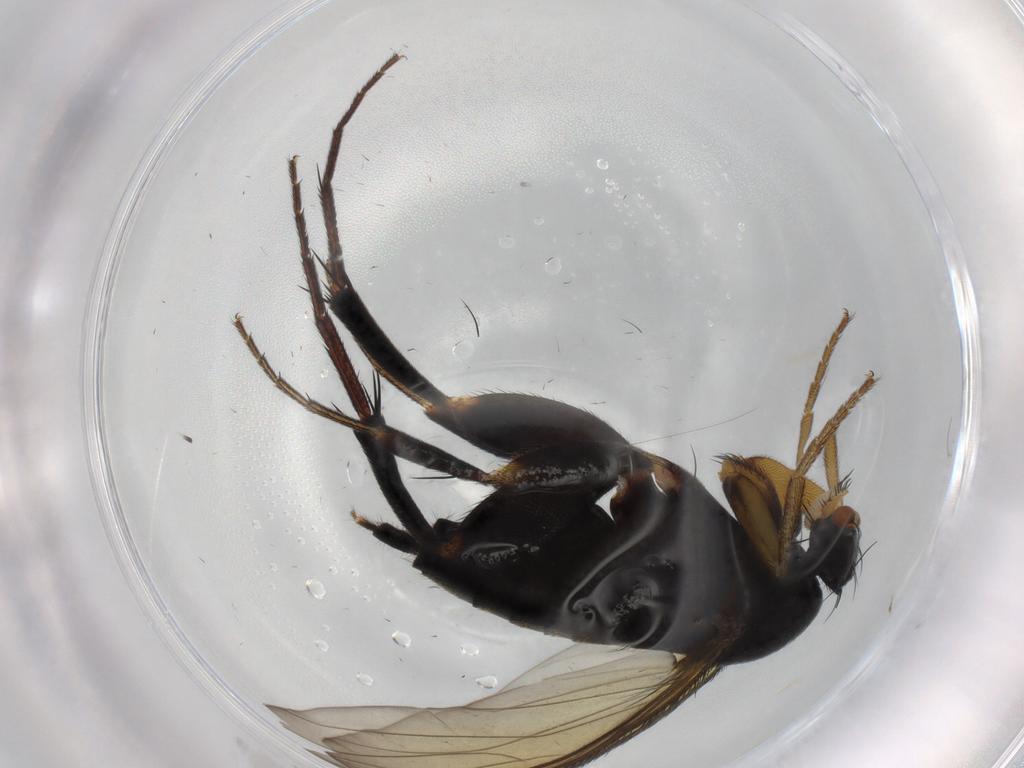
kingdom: Animalia
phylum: Arthropoda
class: Insecta
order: Diptera
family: Phoridae
